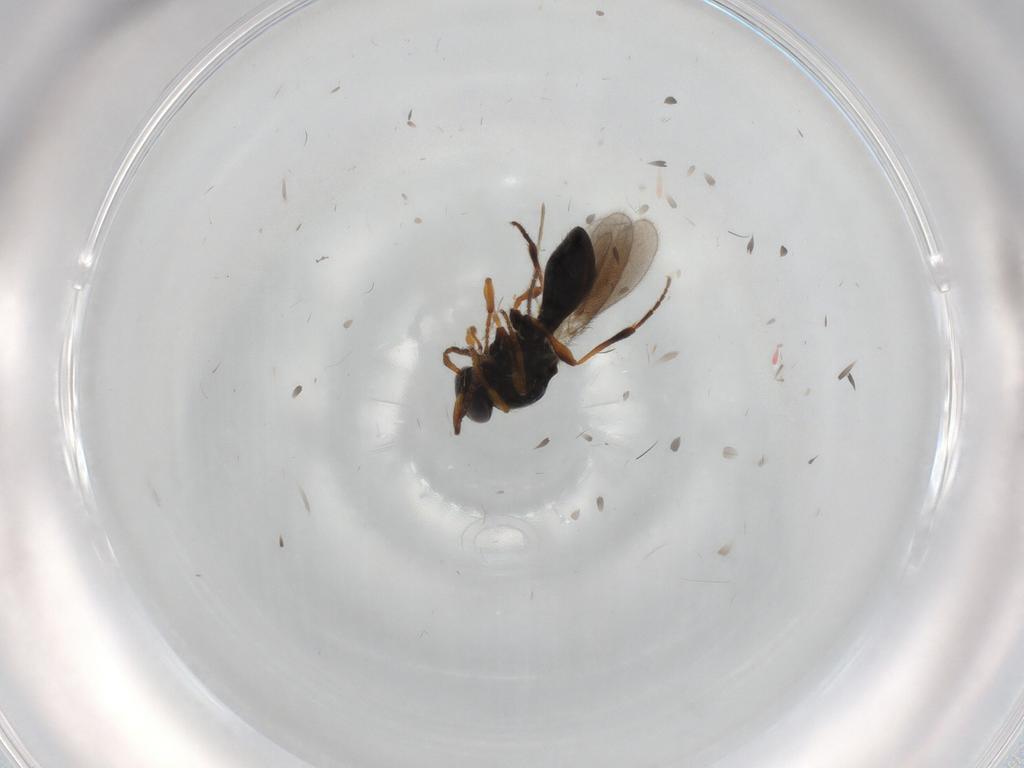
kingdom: Animalia
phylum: Arthropoda
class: Insecta
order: Hymenoptera
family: Platygastridae
